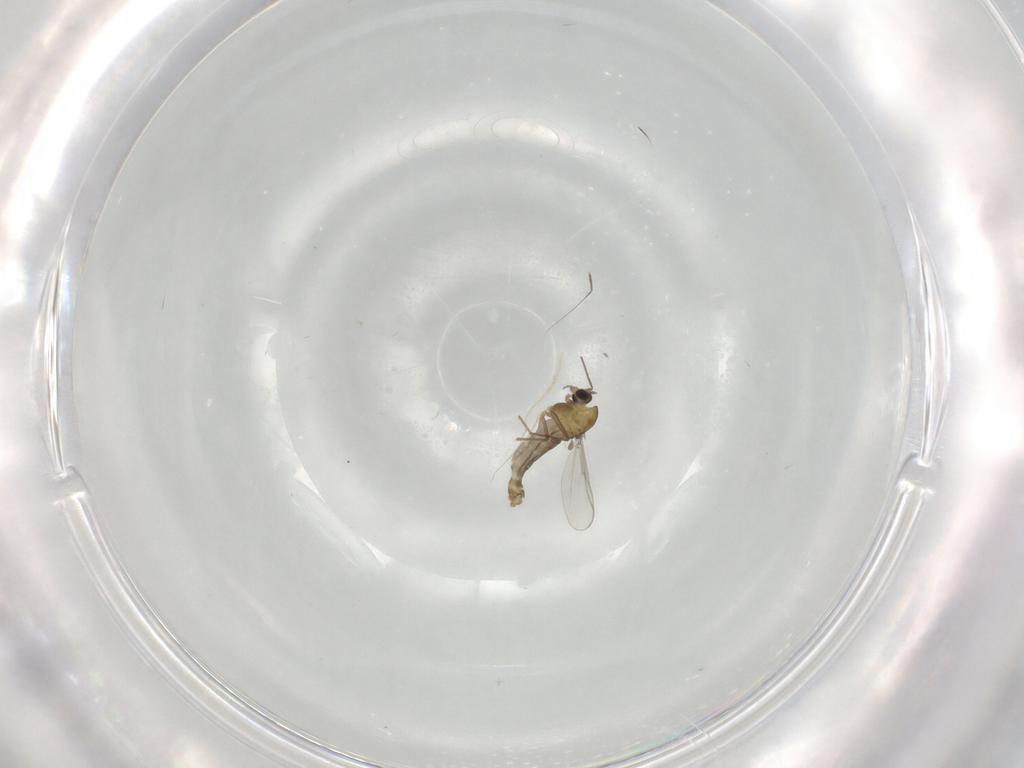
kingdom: Animalia
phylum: Arthropoda
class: Insecta
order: Diptera
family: Chironomidae
